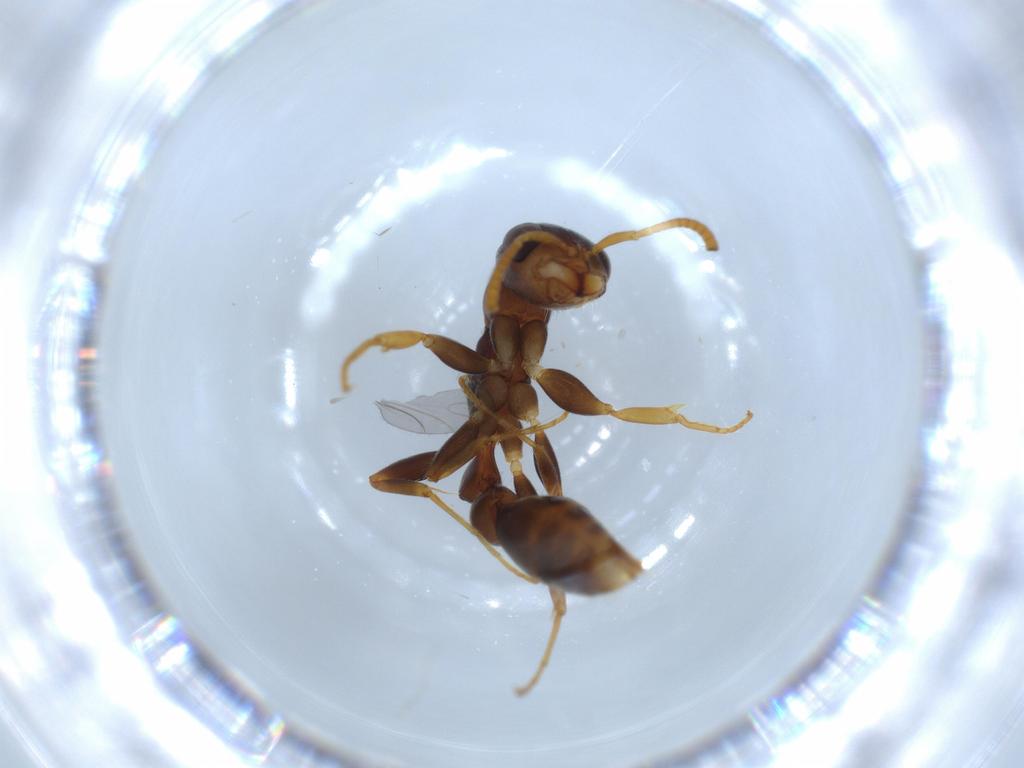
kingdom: Animalia
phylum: Arthropoda
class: Insecta
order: Hymenoptera
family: Formicidae
